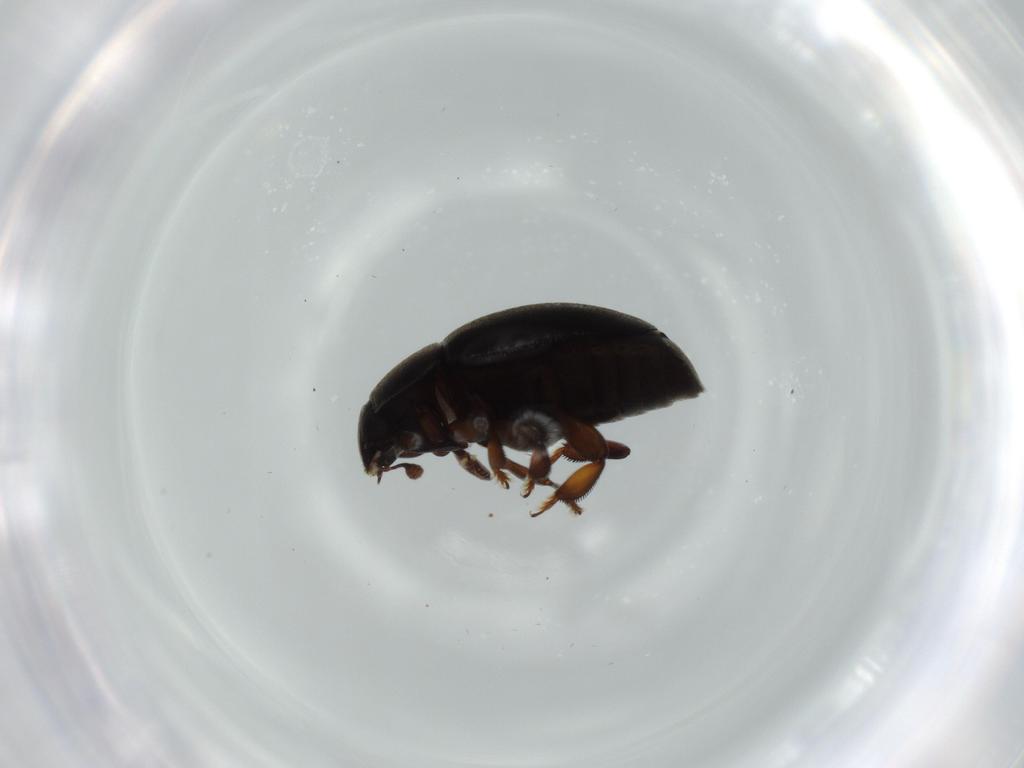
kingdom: Animalia
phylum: Arthropoda
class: Insecta
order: Coleoptera
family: Nitidulidae
